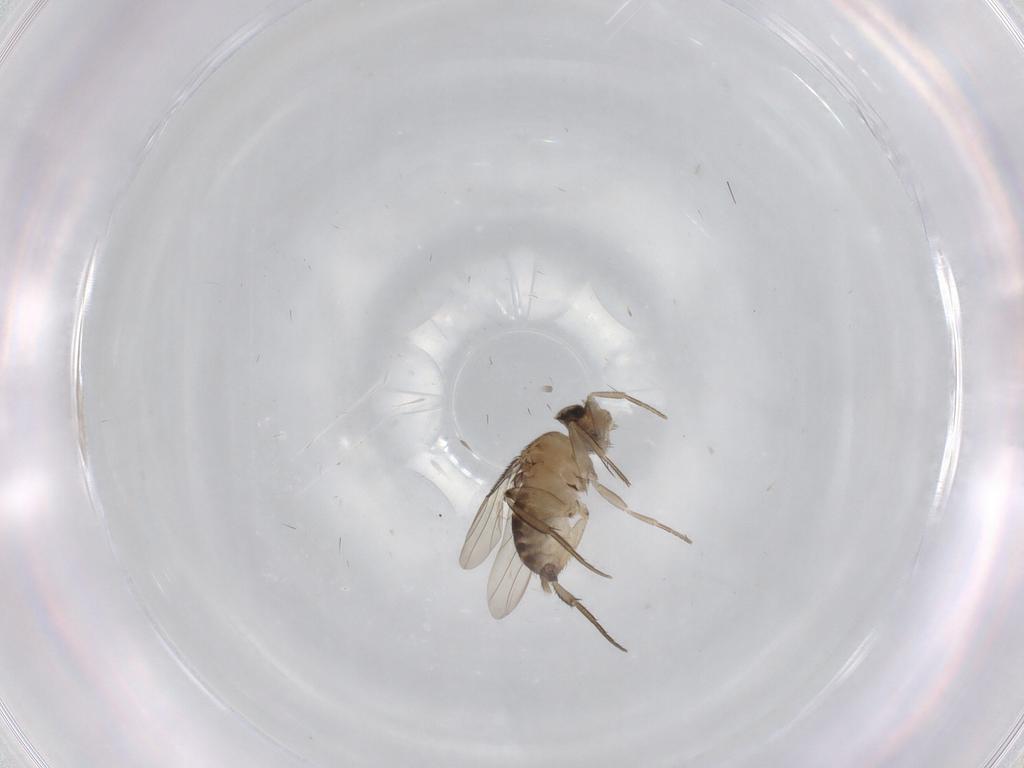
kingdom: Animalia
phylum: Arthropoda
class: Insecta
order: Diptera
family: Phoridae
